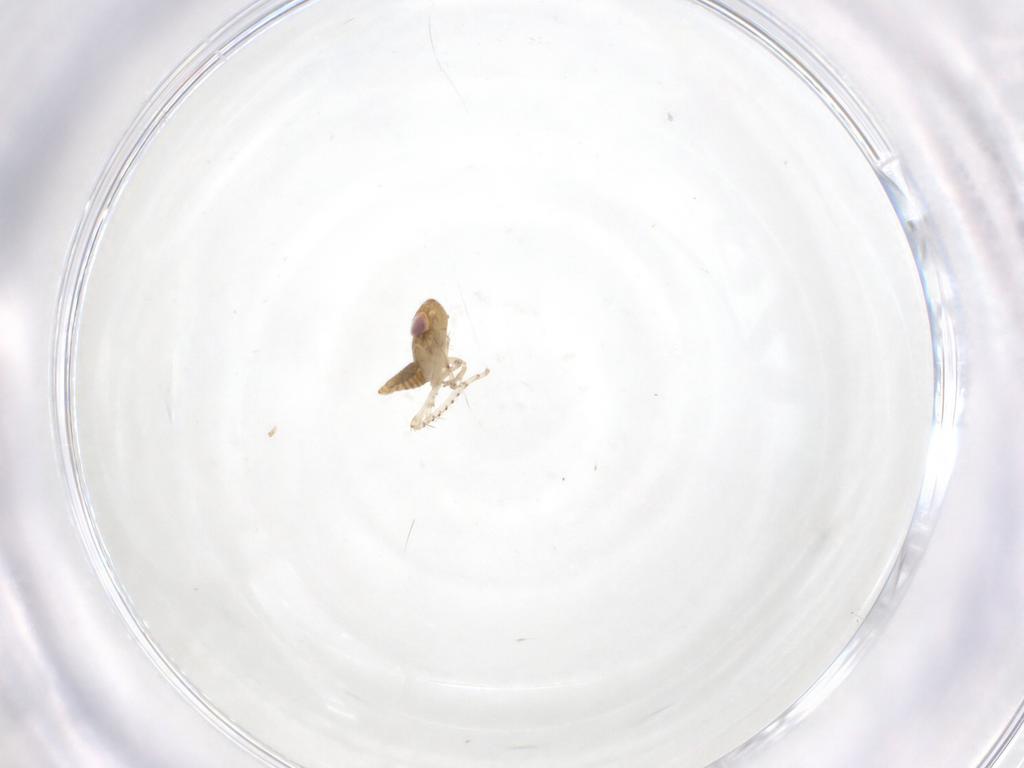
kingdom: Animalia
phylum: Arthropoda
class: Insecta
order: Hemiptera
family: Cicadellidae
